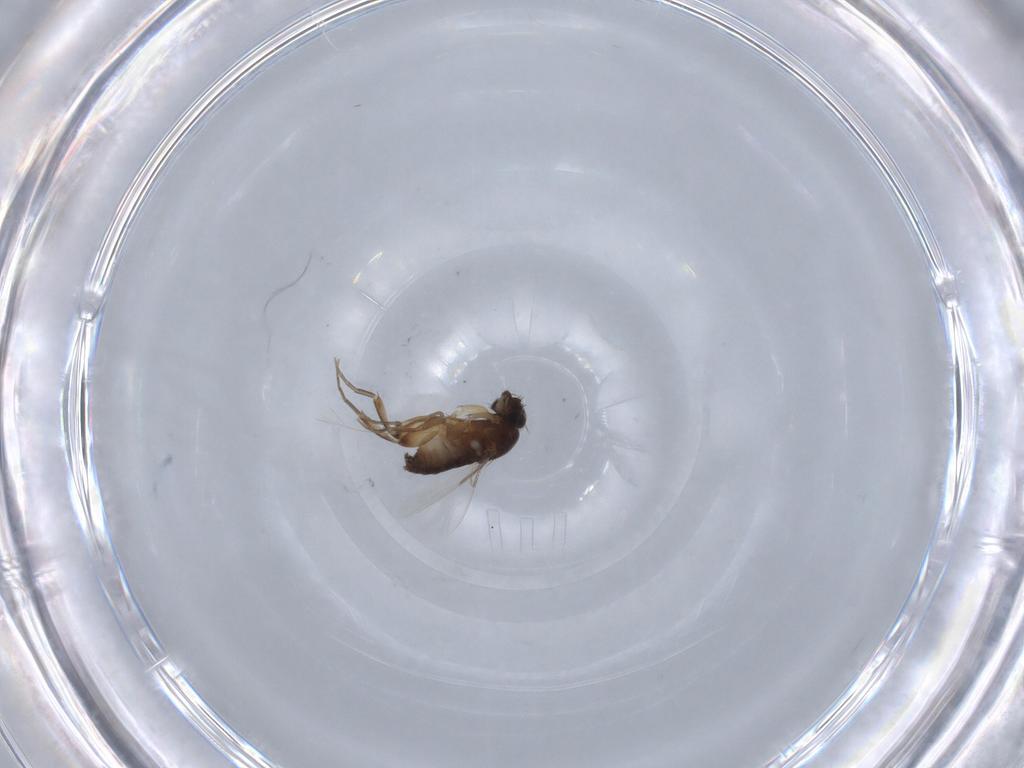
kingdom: Animalia
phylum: Arthropoda
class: Insecta
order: Diptera
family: Phoridae
